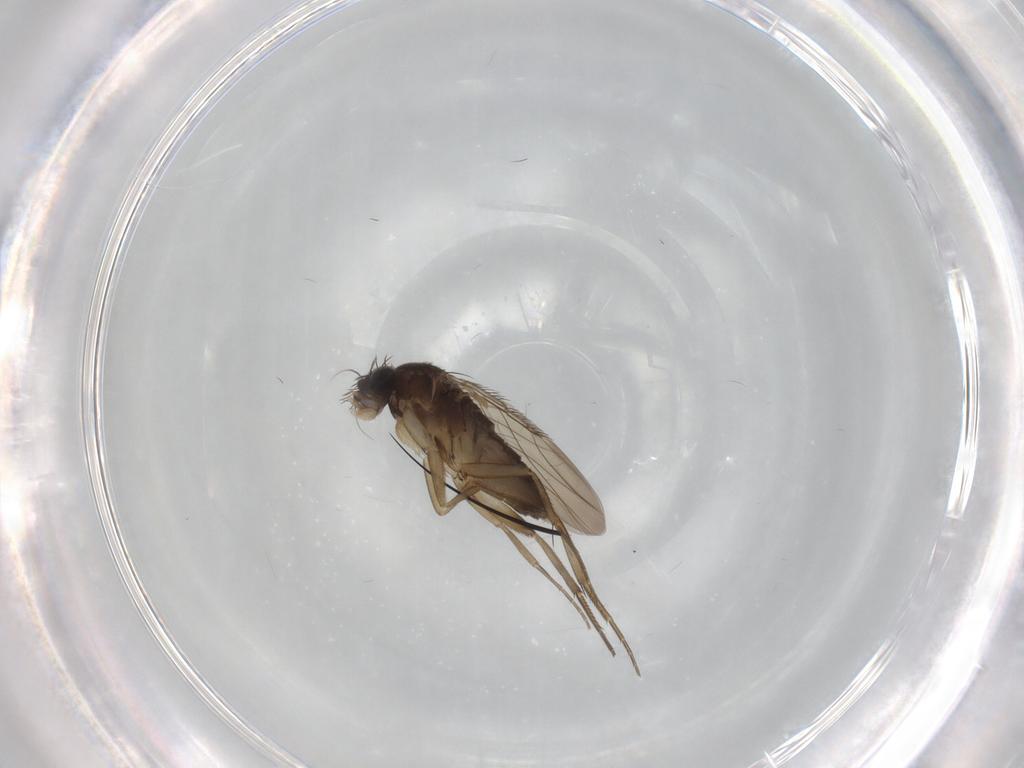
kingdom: Animalia
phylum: Arthropoda
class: Insecta
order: Diptera
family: Phoridae
